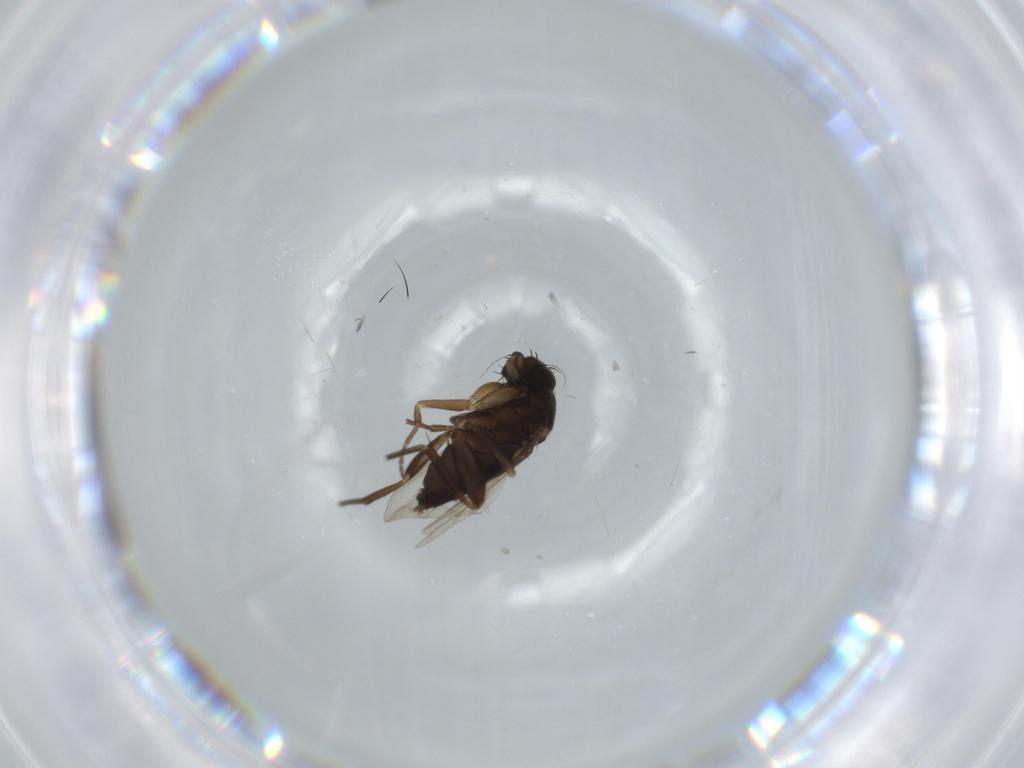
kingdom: Animalia
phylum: Arthropoda
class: Insecta
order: Diptera
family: Phoridae
